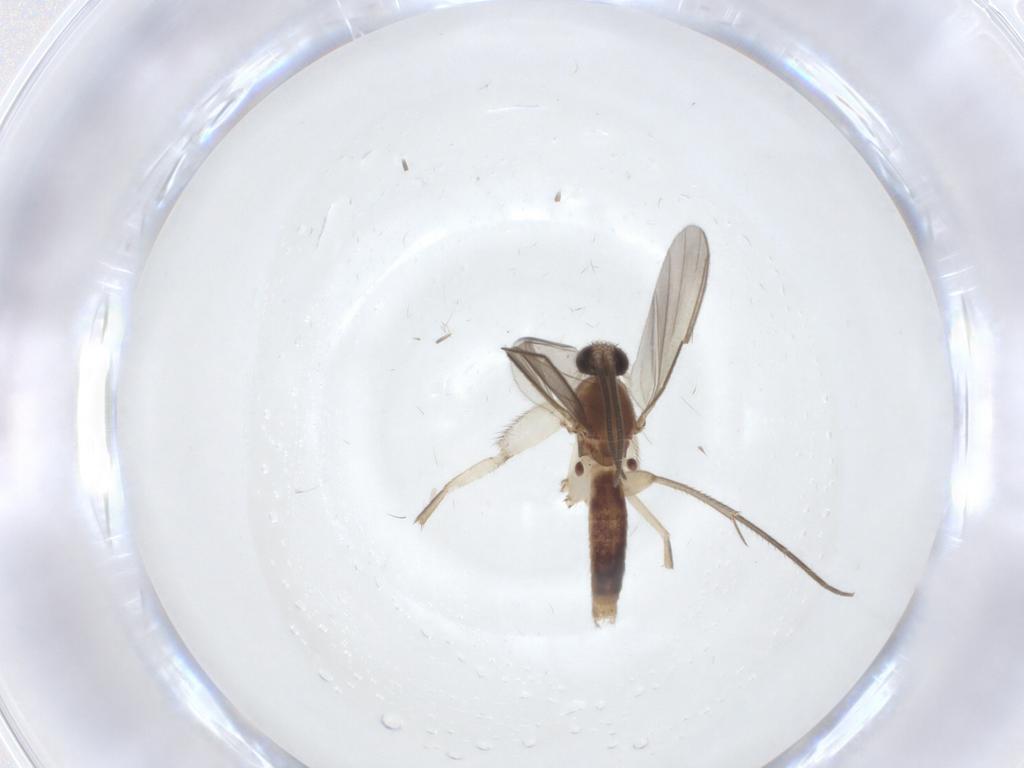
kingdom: Animalia
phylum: Arthropoda
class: Insecta
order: Diptera
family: Mycetophilidae
